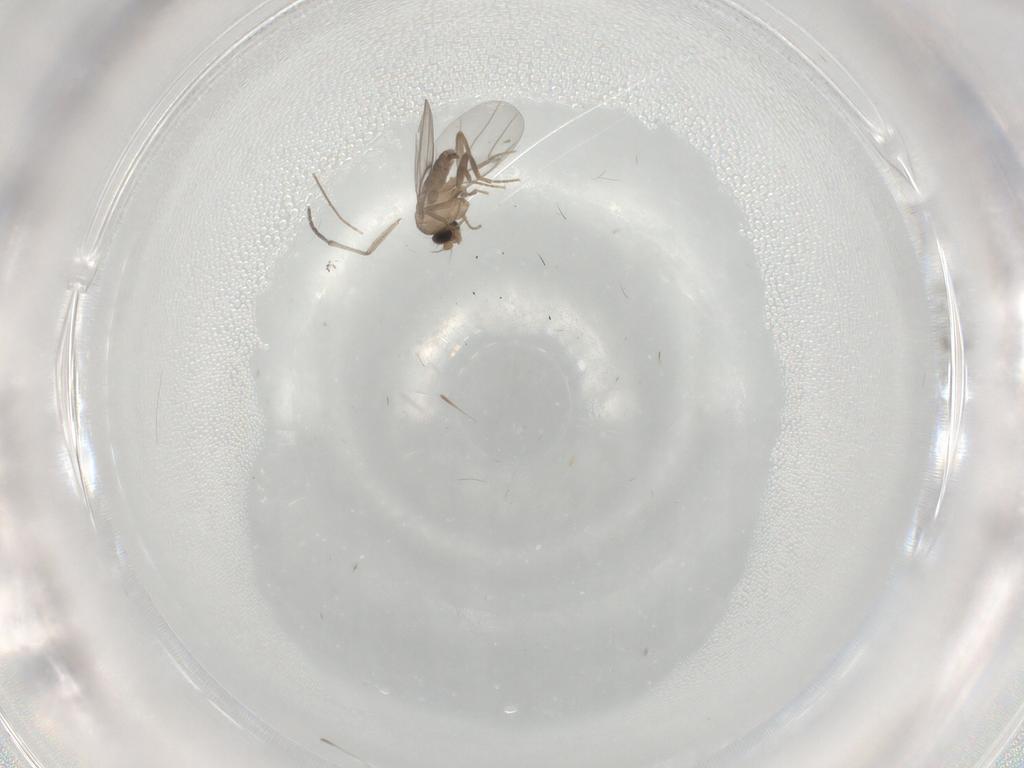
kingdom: Animalia
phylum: Arthropoda
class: Insecta
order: Diptera
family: Sciaridae
